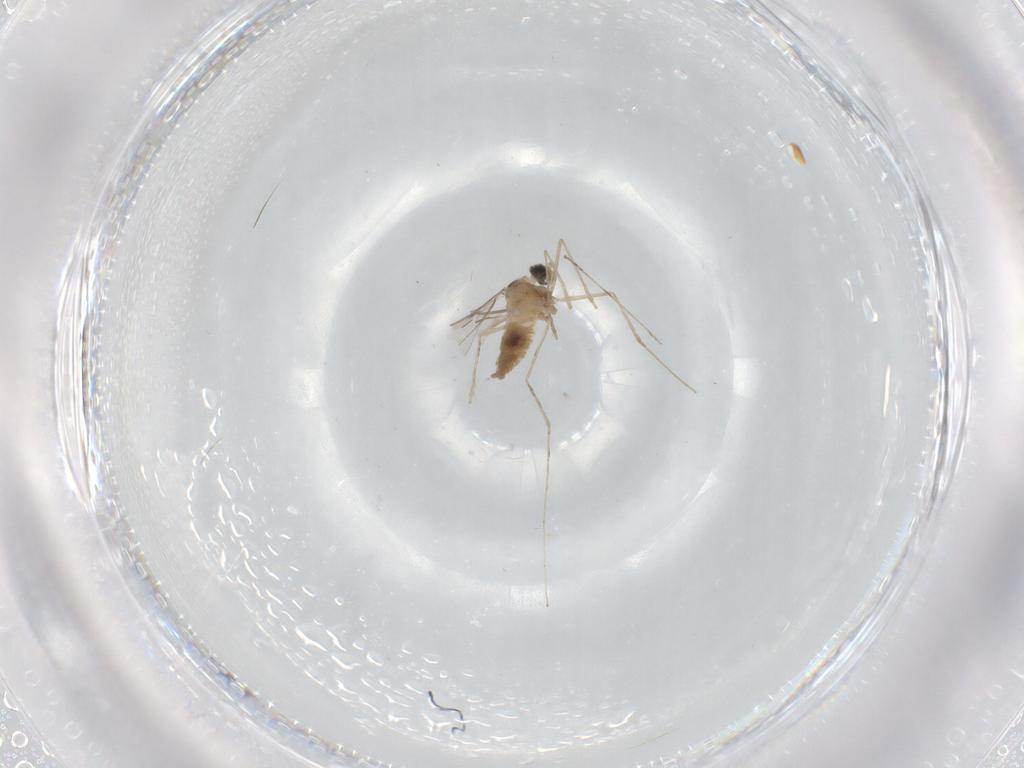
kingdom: Animalia
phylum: Arthropoda
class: Insecta
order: Diptera
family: Cecidomyiidae
